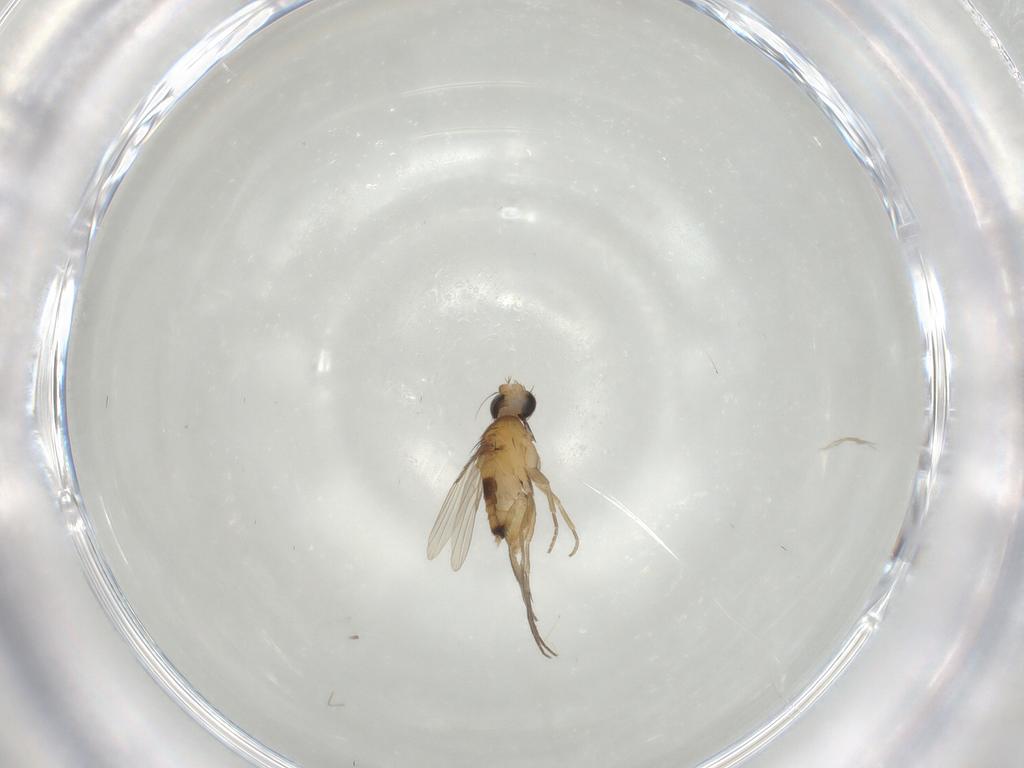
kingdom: Animalia
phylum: Arthropoda
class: Insecta
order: Diptera
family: Phoridae
